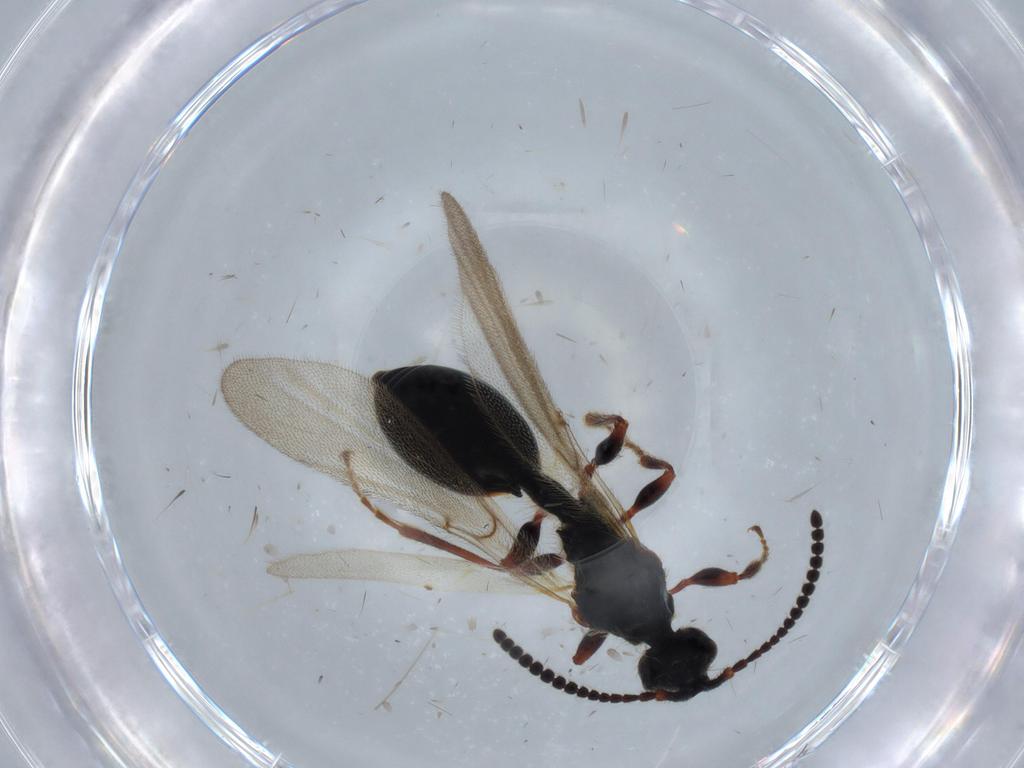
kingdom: Animalia
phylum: Arthropoda
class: Insecta
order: Hymenoptera
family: Diapriidae
